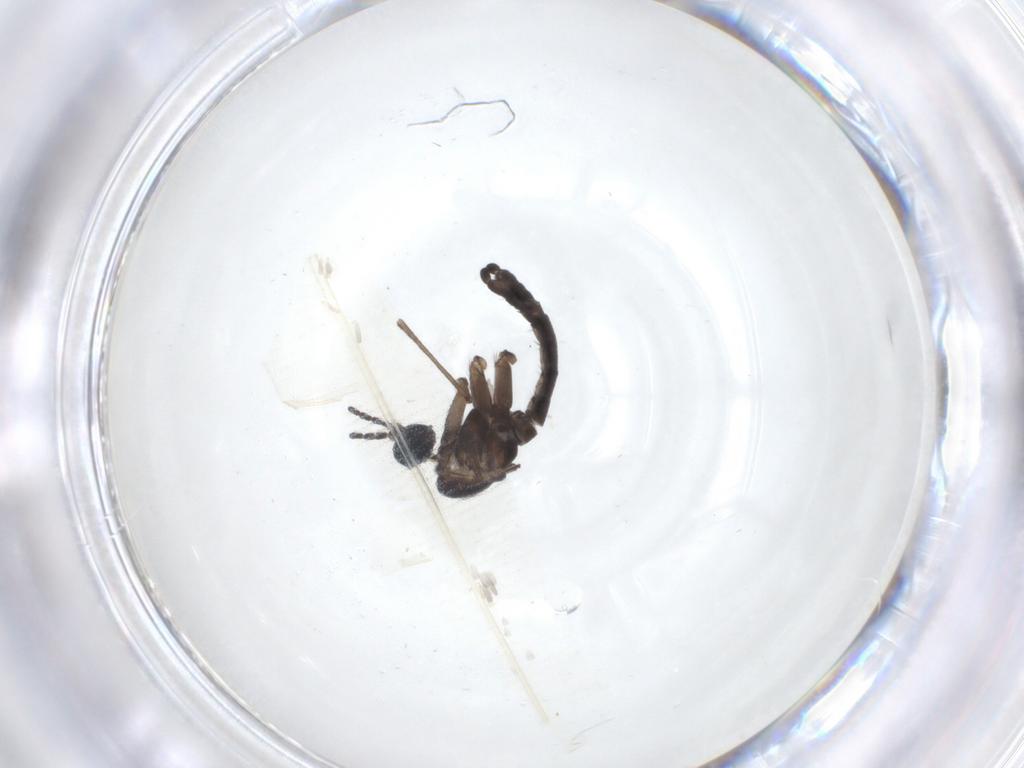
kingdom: Animalia
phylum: Arthropoda
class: Insecta
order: Diptera
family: Sciaridae
